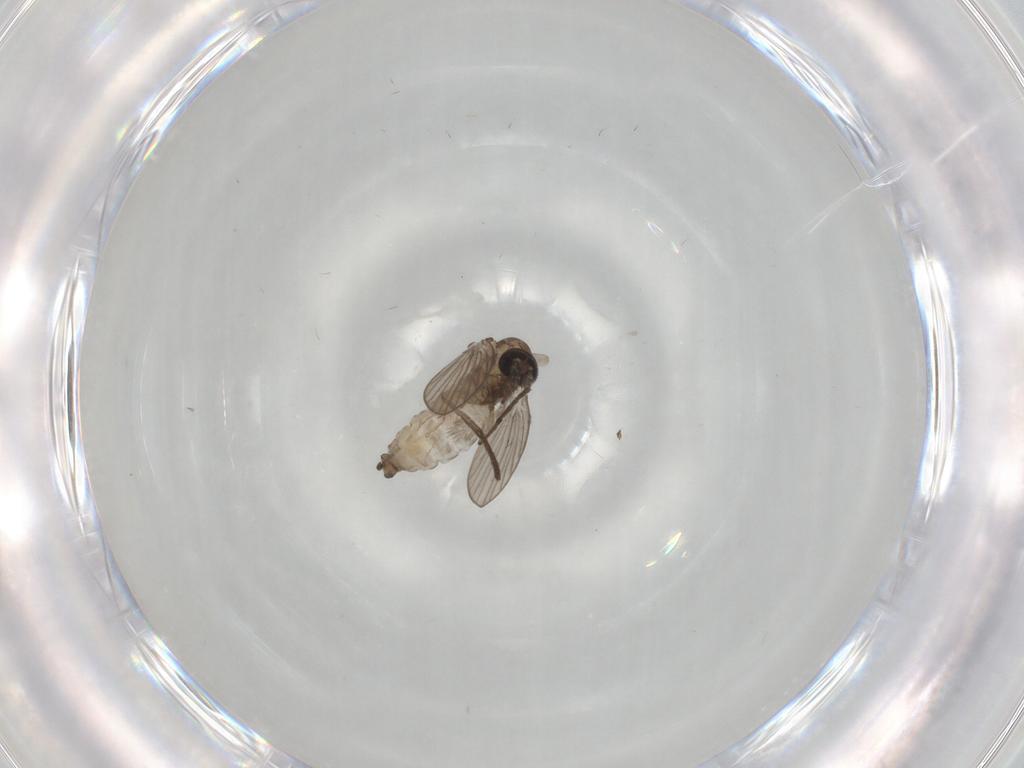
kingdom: Animalia
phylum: Arthropoda
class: Insecta
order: Diptera
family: Psychodidae
